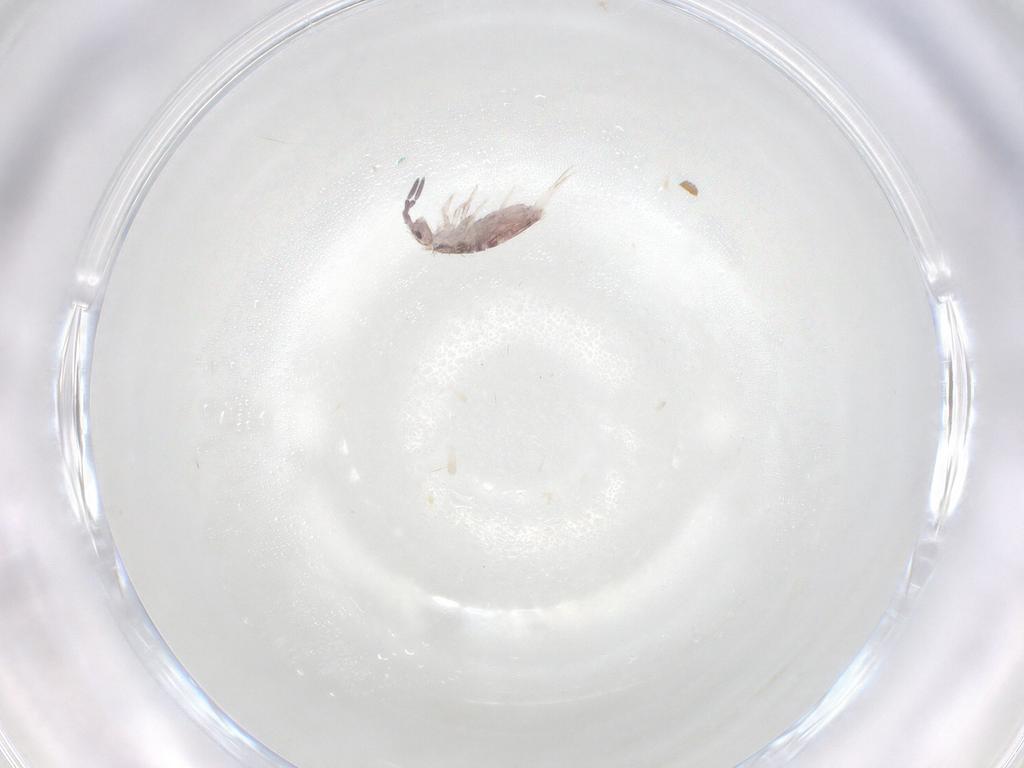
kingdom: Animalia
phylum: Arthropoda
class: Collembola
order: Poduromorpha
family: Hypogastruridae
